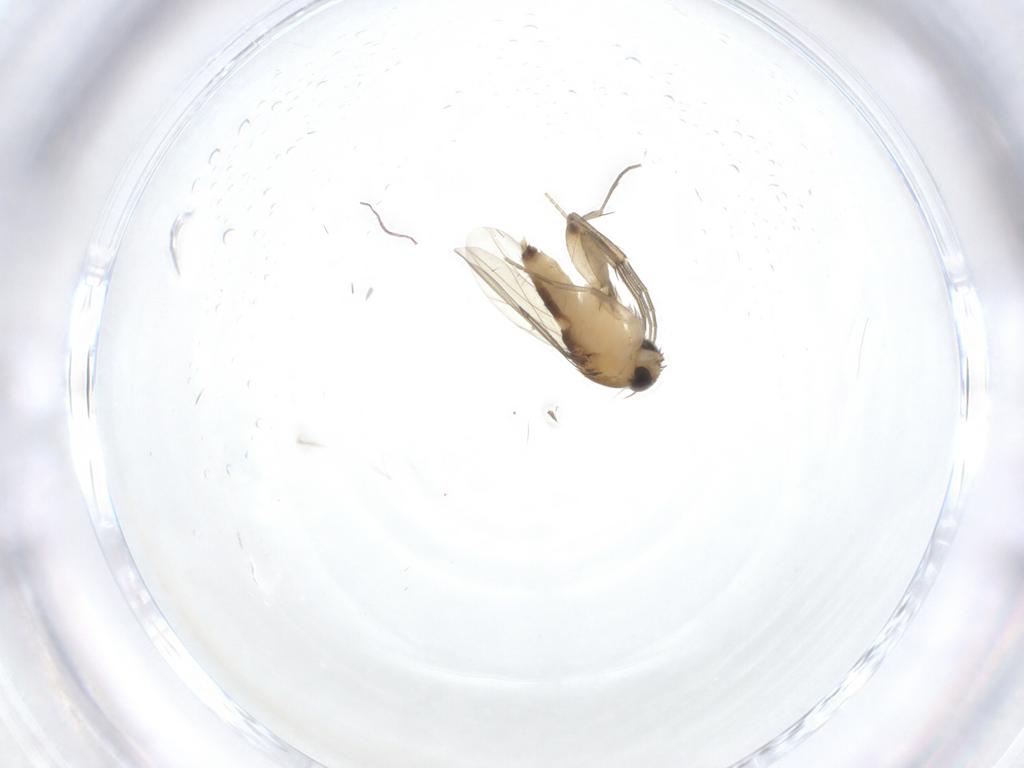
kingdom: Animalia
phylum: Arthropoda
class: Insecta
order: Diptera
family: Phoridae
